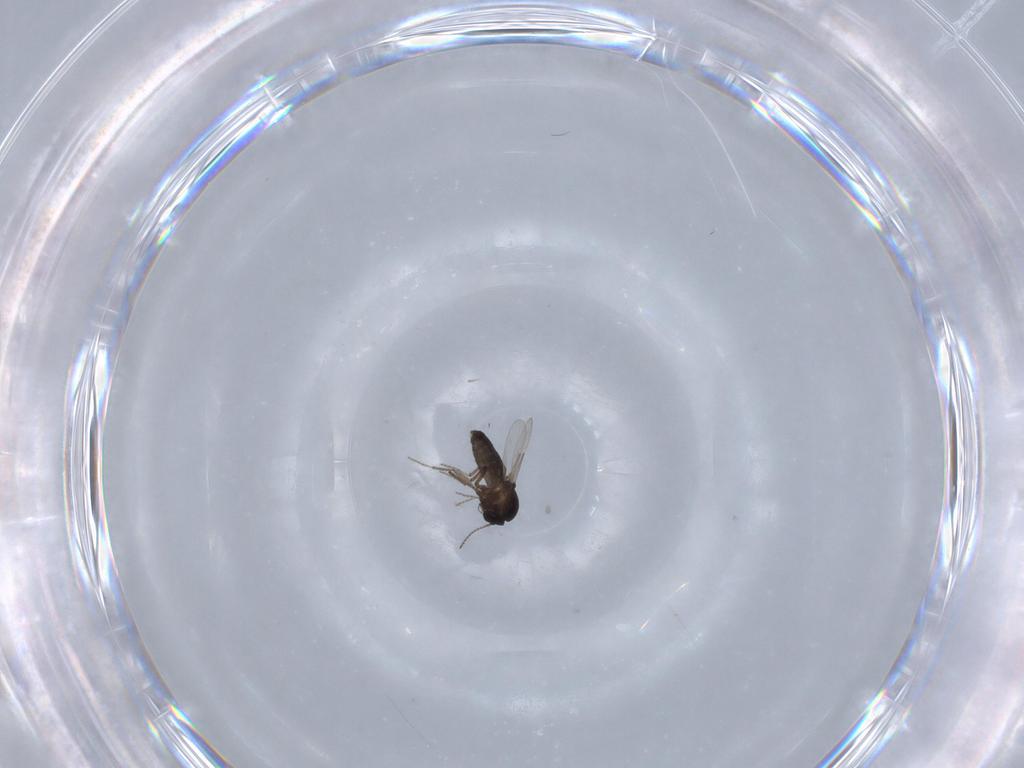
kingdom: Animalia
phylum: Arthropoda
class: Insecta
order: Diptera
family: Ceratopogonidae
